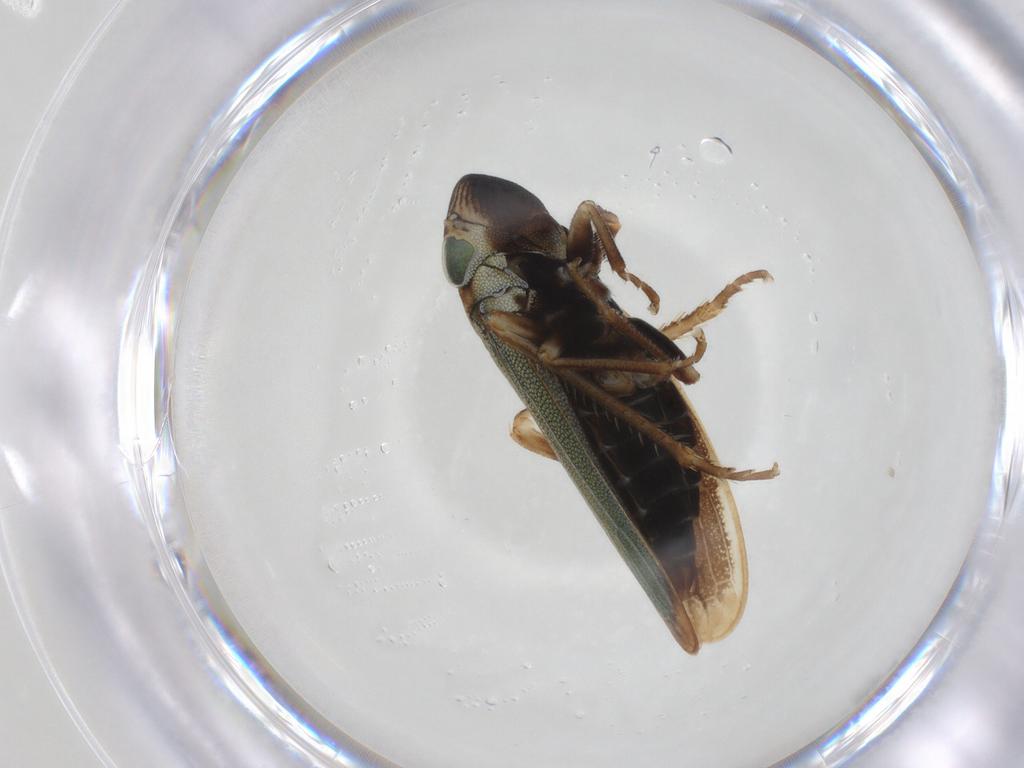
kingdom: Animalia
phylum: Arthropoda
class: Insecta
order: Hemiptera
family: Cicadellidae
